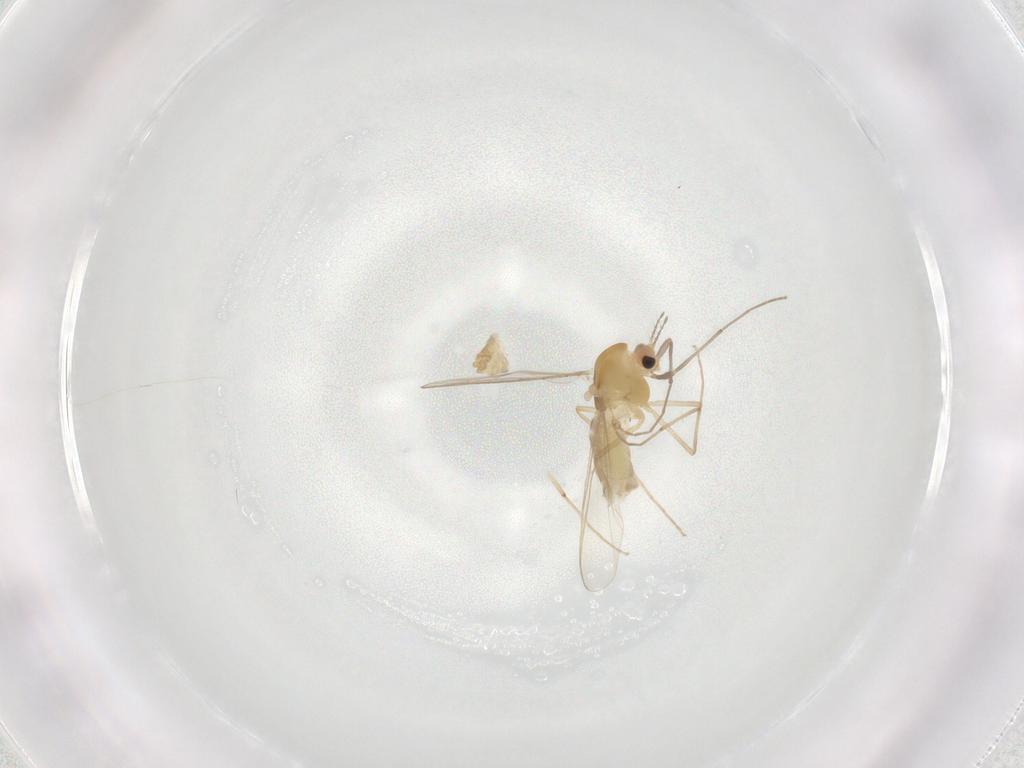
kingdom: Animalia
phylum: Arthropoda
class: Insecta
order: Diptera
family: Chironomidae
